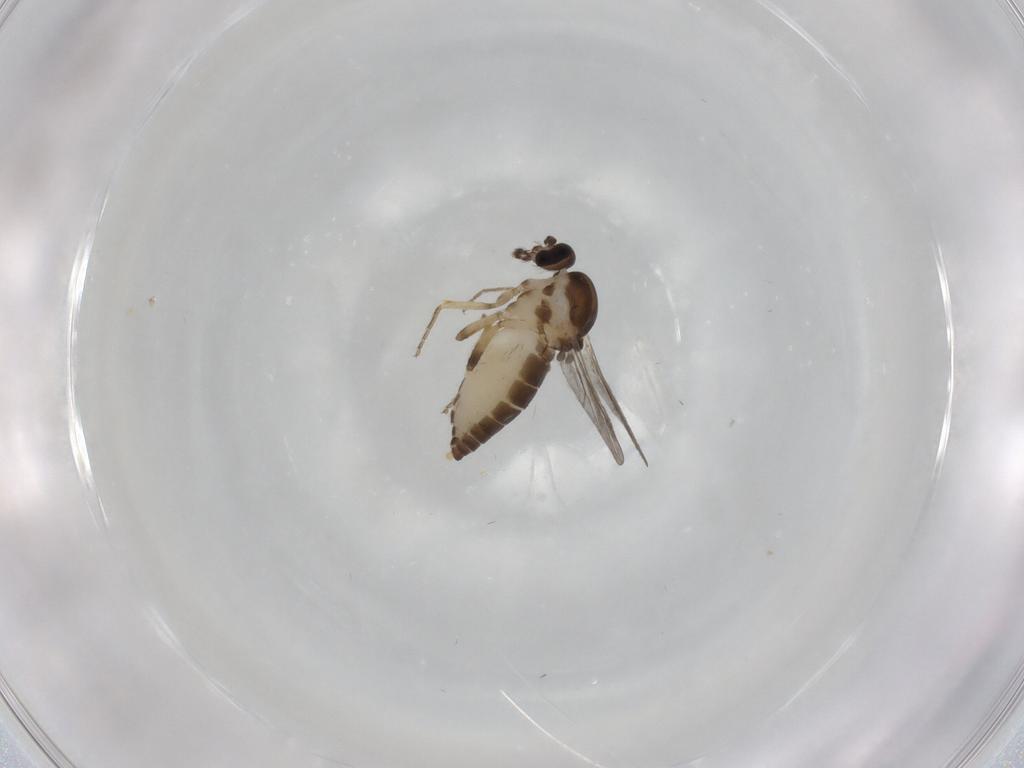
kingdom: Animalia
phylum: Arthropoda
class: Insecta
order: Diptera
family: Ceratopogonidae
